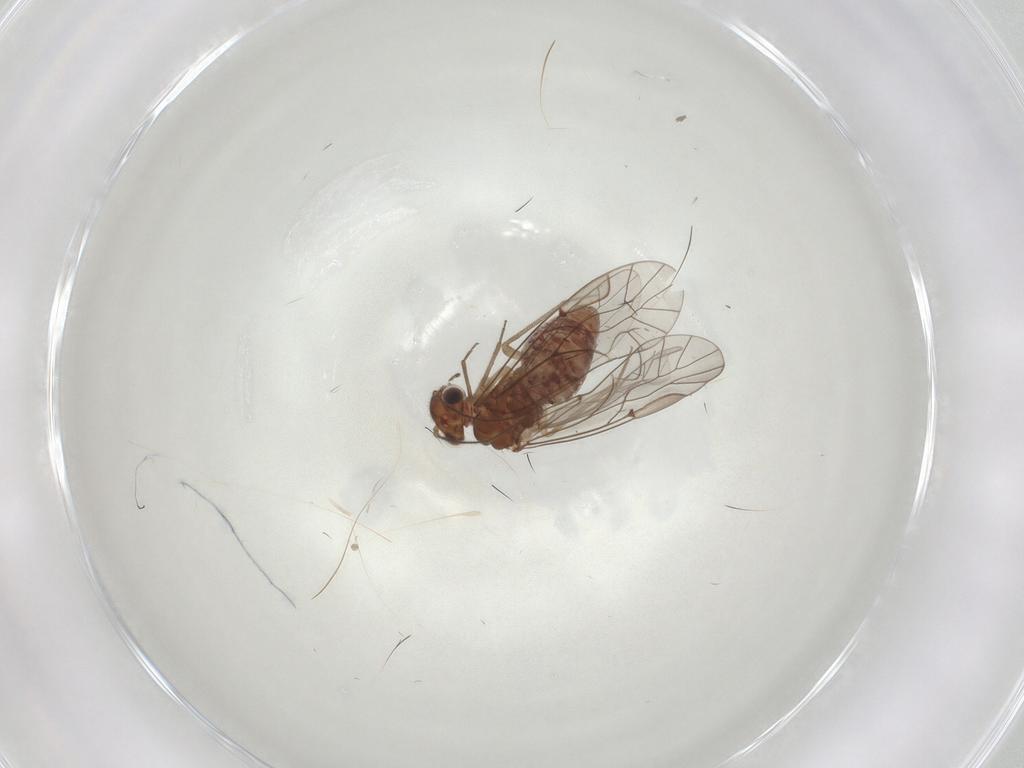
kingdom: Animalia
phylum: Arthropoda
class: Insecta
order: Psocodea
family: Lachesillidae
